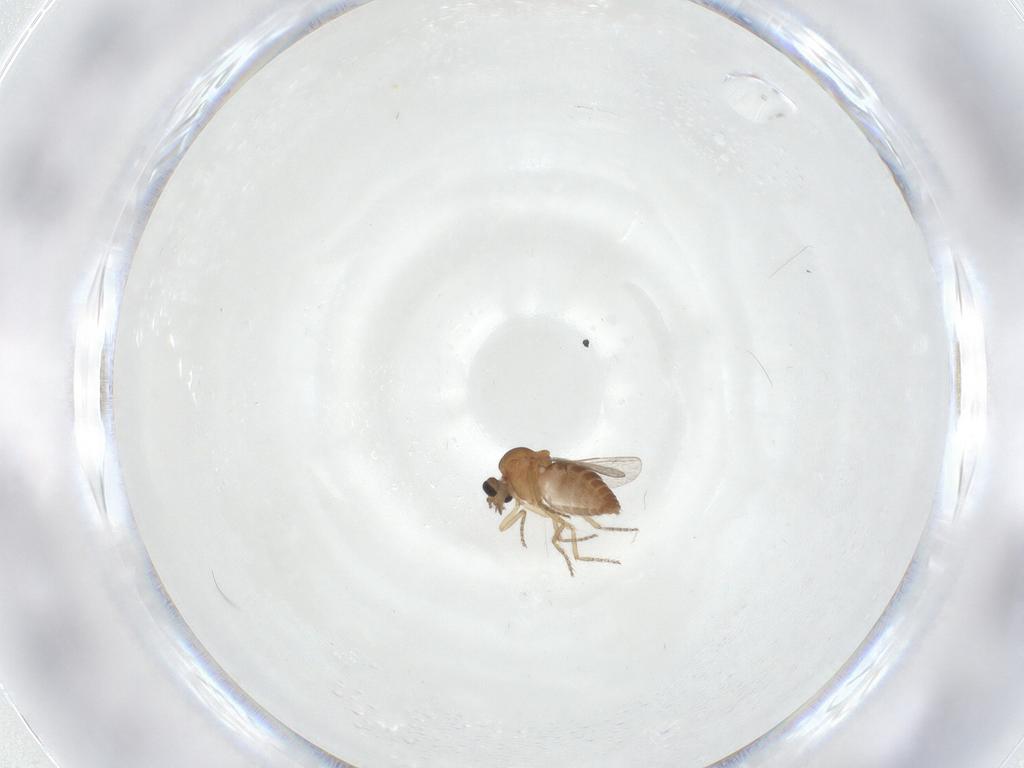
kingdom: Animalia
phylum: Arthropoda
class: Insecta
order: Diptera
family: Ceratopogonidae
